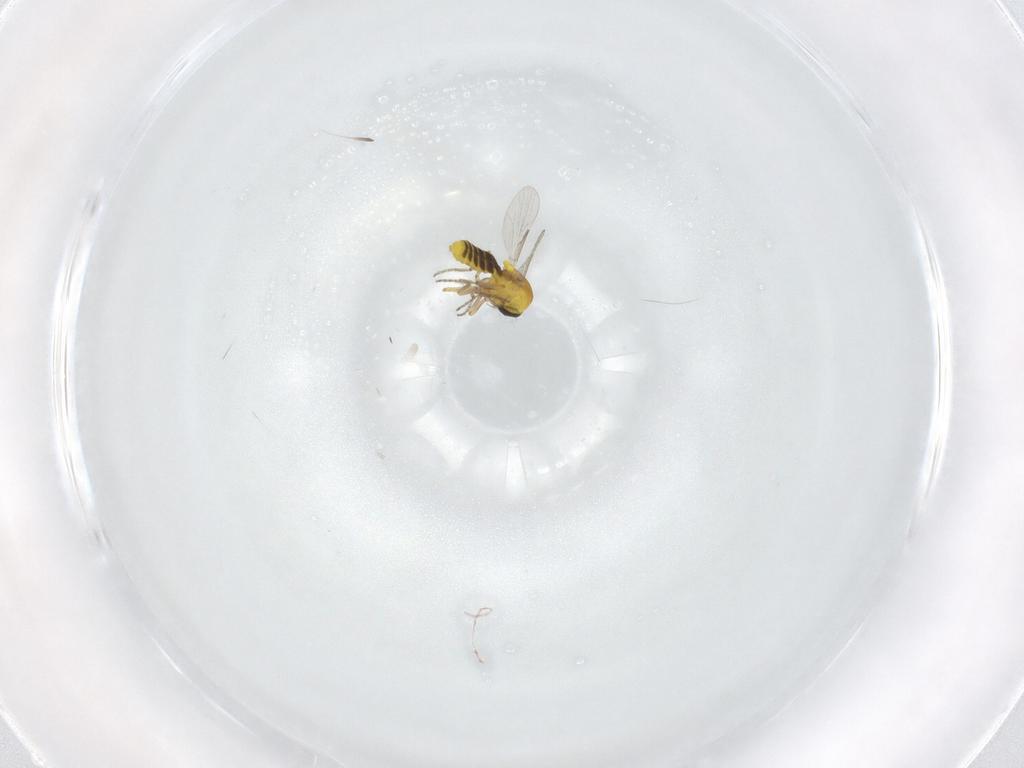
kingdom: Animalia
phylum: Arthropoda
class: Insecta
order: Diptera
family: Ceratopogonidae
